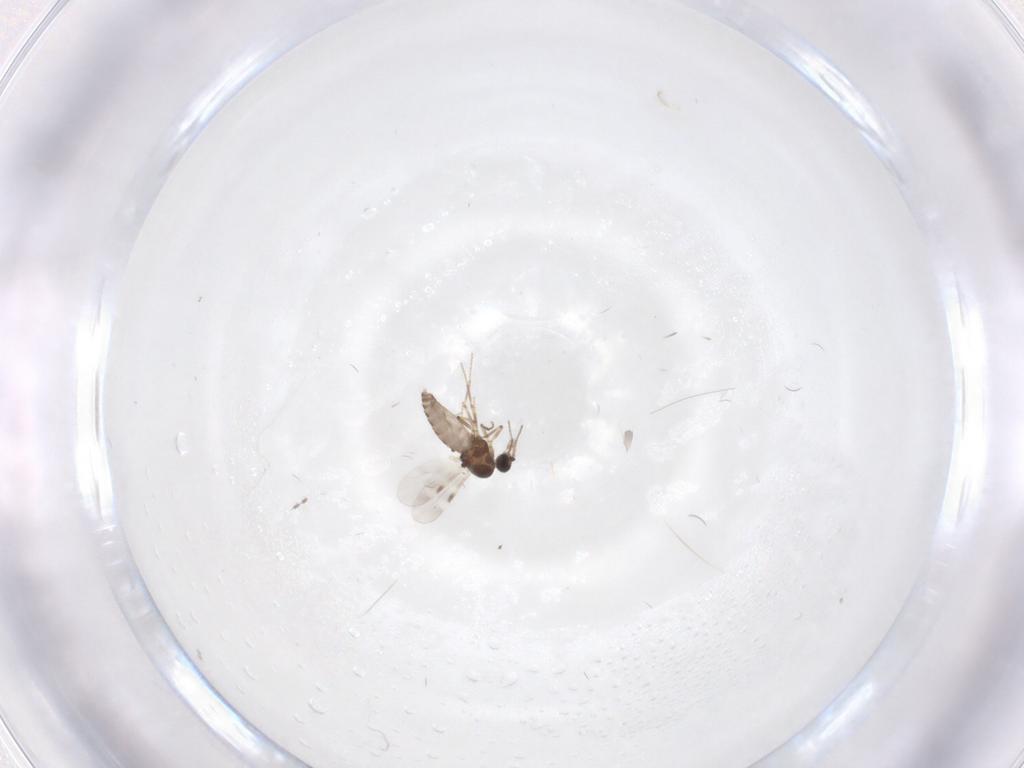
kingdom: Animalia
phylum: Arthropoda
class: Insecta
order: Diptera
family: Cecidomyiidae
